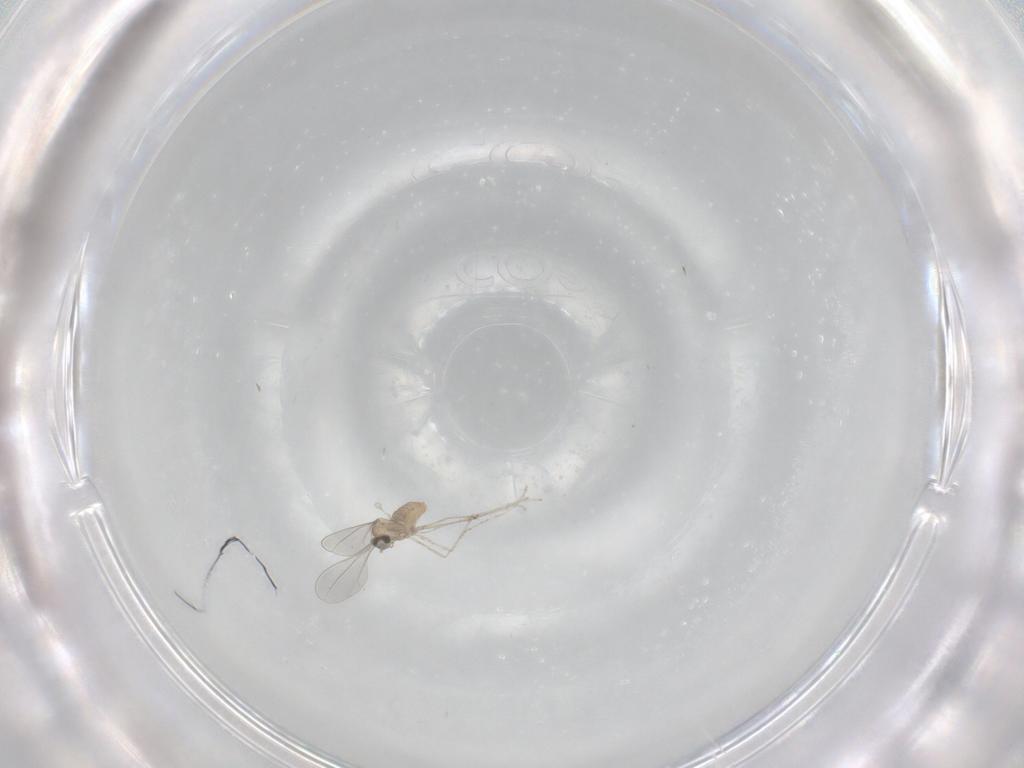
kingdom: Animalia
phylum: Arthropoda
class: Insecta
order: Diptera
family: Cecidomyiidae
